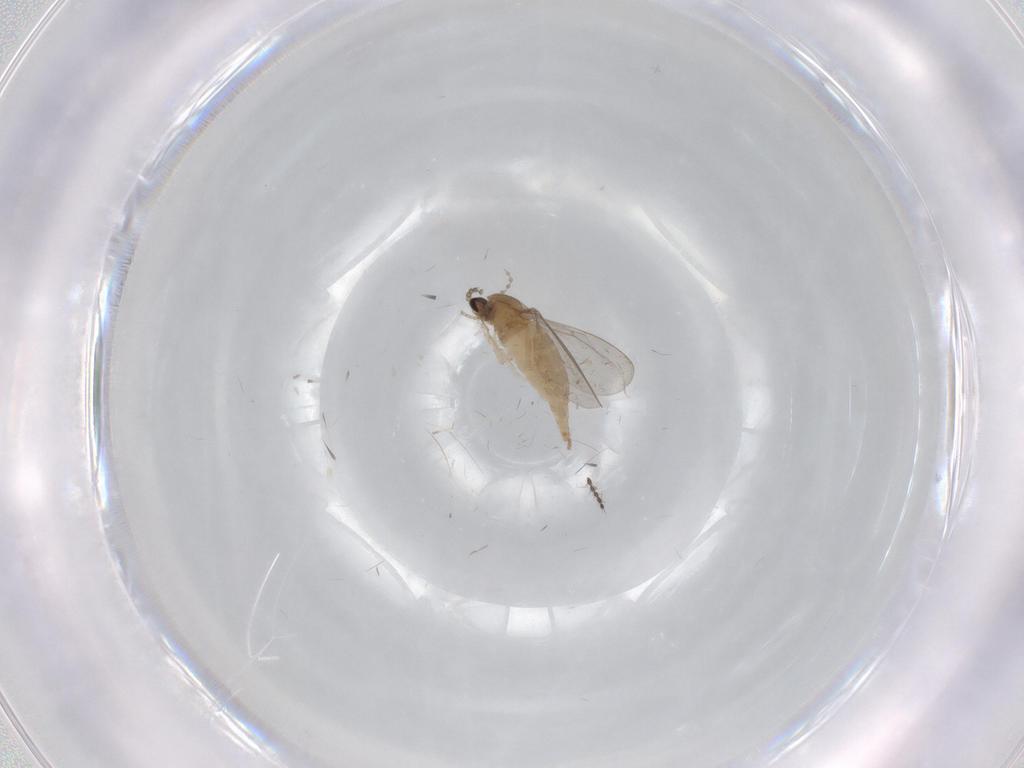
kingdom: Animalia
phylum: Arthropoda
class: Insecta
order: Diptera
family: Cecidomyiidae
